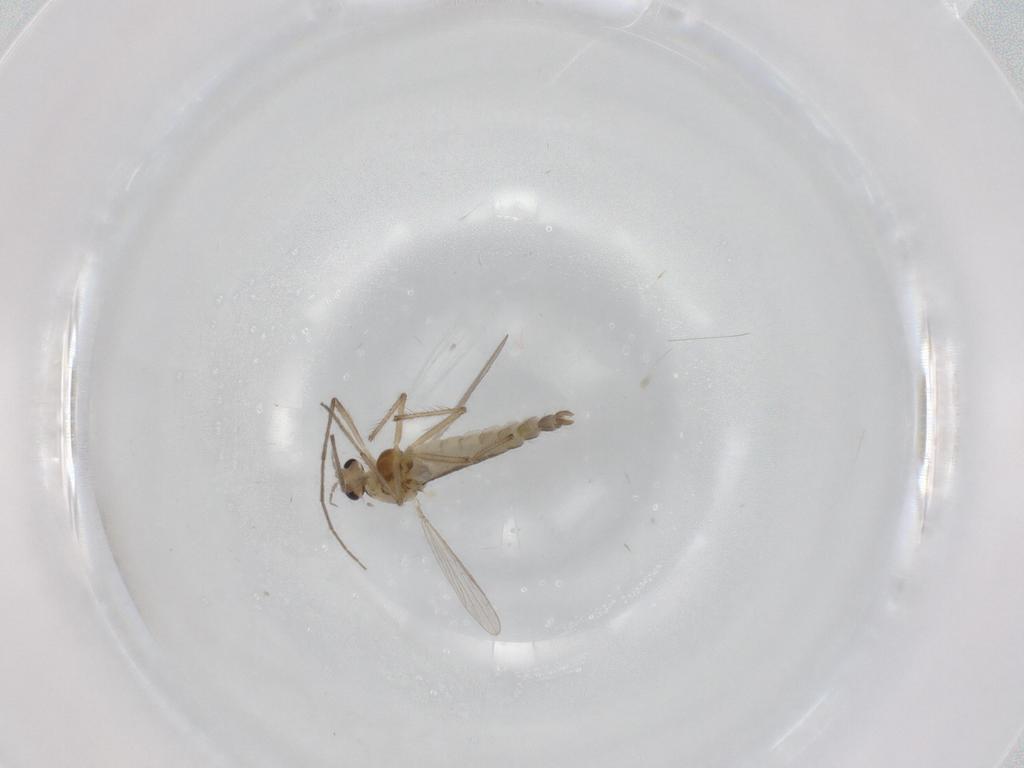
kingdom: Animalia
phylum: Arthropoda
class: Insecta
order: Diptera
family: Chironomidae
